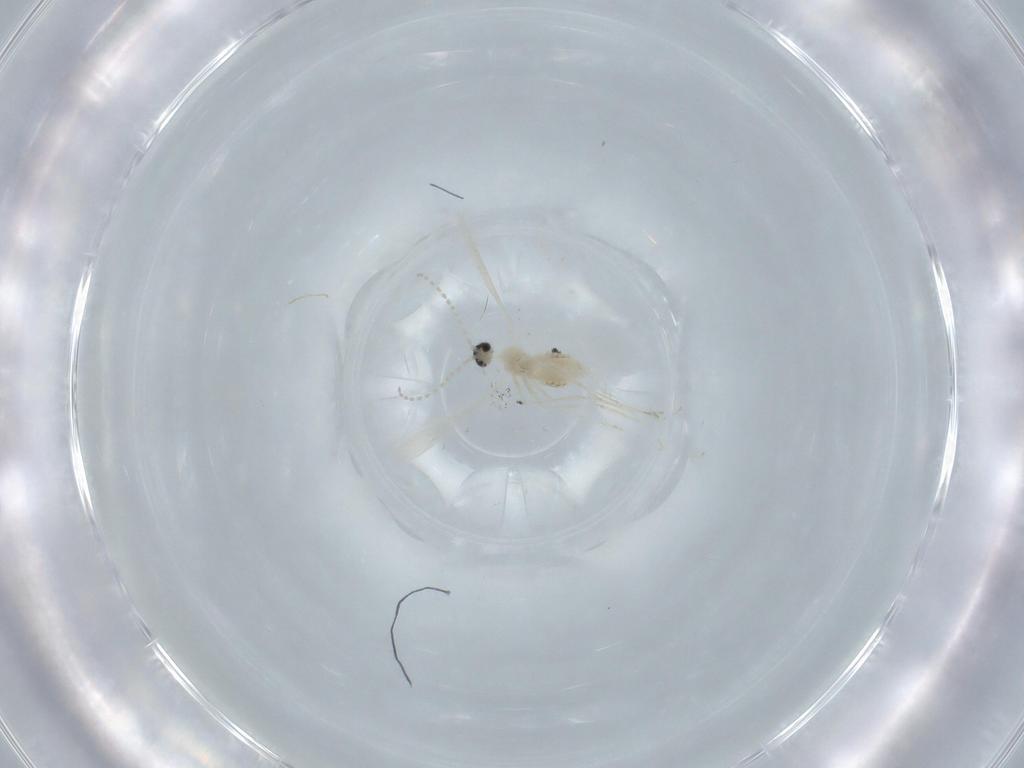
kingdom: Animalia
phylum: Arthropoda
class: Insecta
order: Diptera
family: Cecidomyiidae
